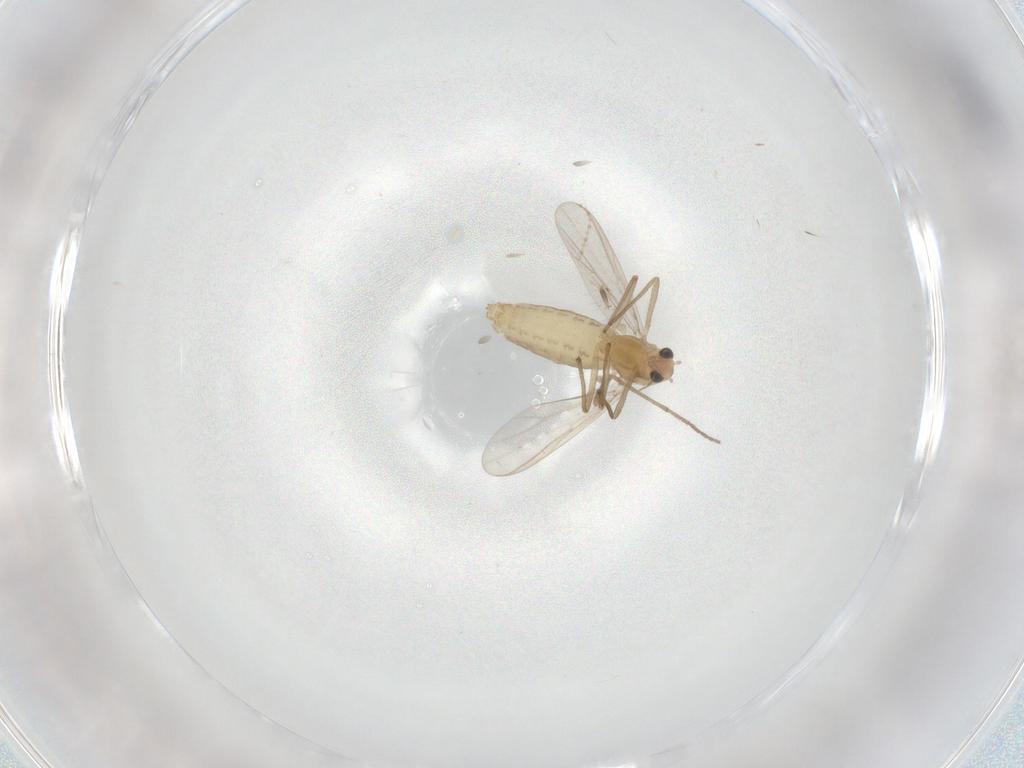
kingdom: Animalia
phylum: Arthropoda
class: Insecta
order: Diptera
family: Chironomidae
